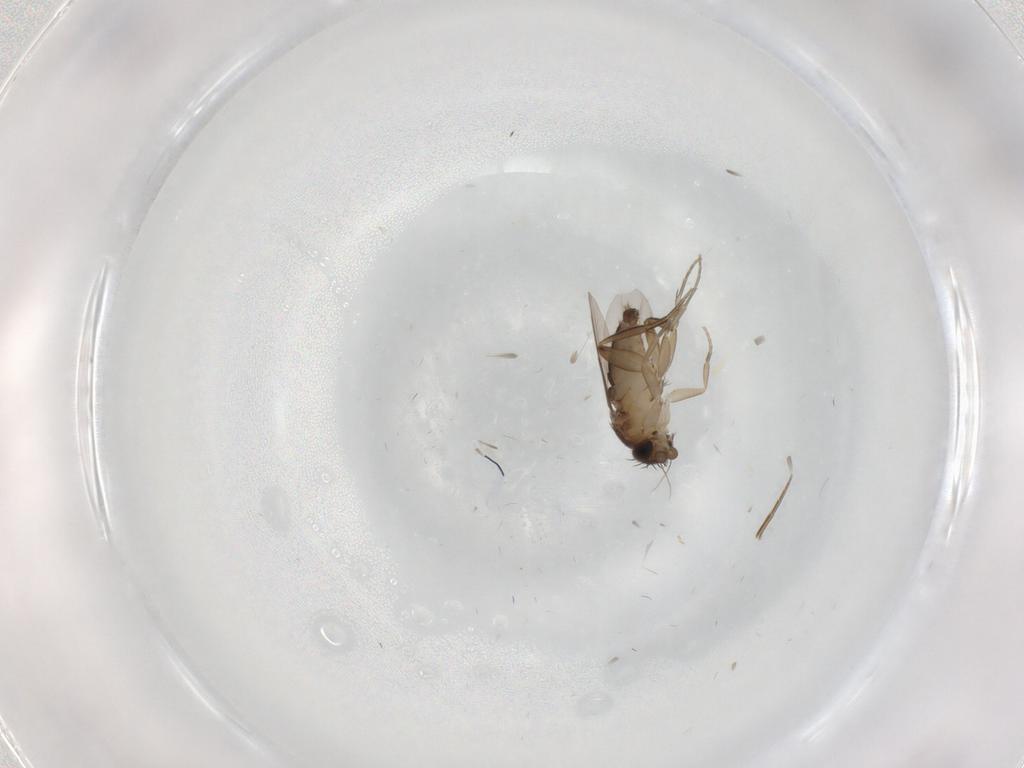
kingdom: Animalia
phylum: Arthropoda
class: Insecta
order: Diptera
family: Phoridae
